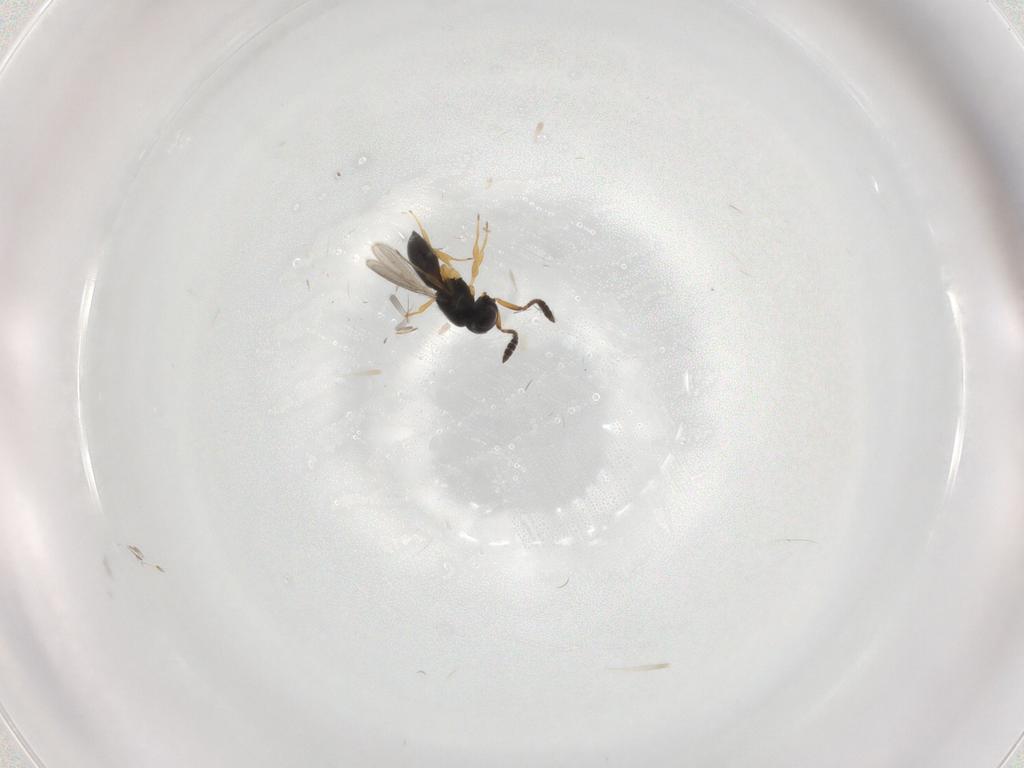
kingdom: Animalia
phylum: Arthropoda
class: Insecta
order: Hymenoptera
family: Scelionidae
